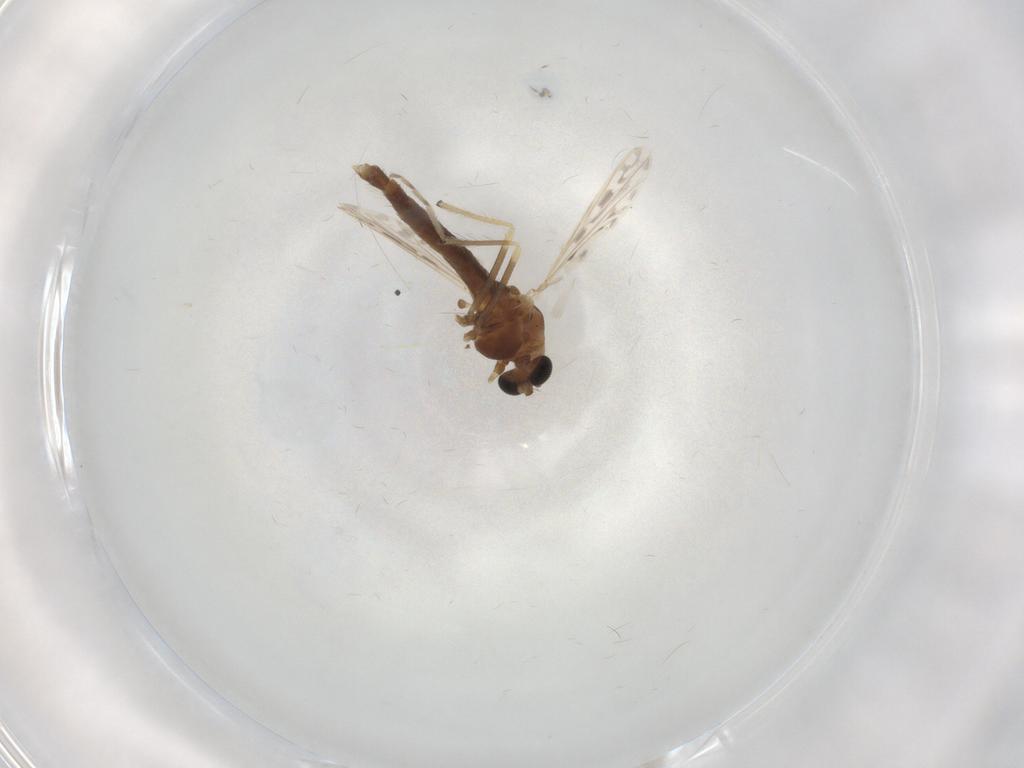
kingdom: Animalia
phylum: Arthropoda
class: Insecta
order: Diptera
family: Chironomidae
